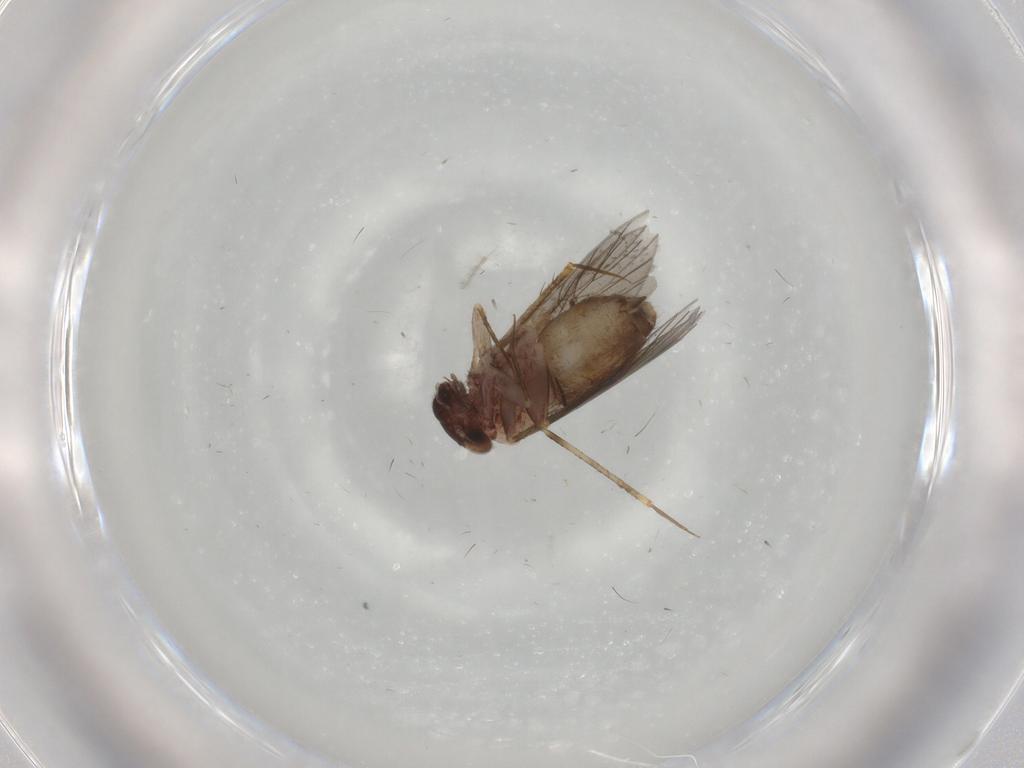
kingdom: Animalia
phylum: Arthropoda
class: Insecta
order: Psocodea
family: Lepidopsocidae
